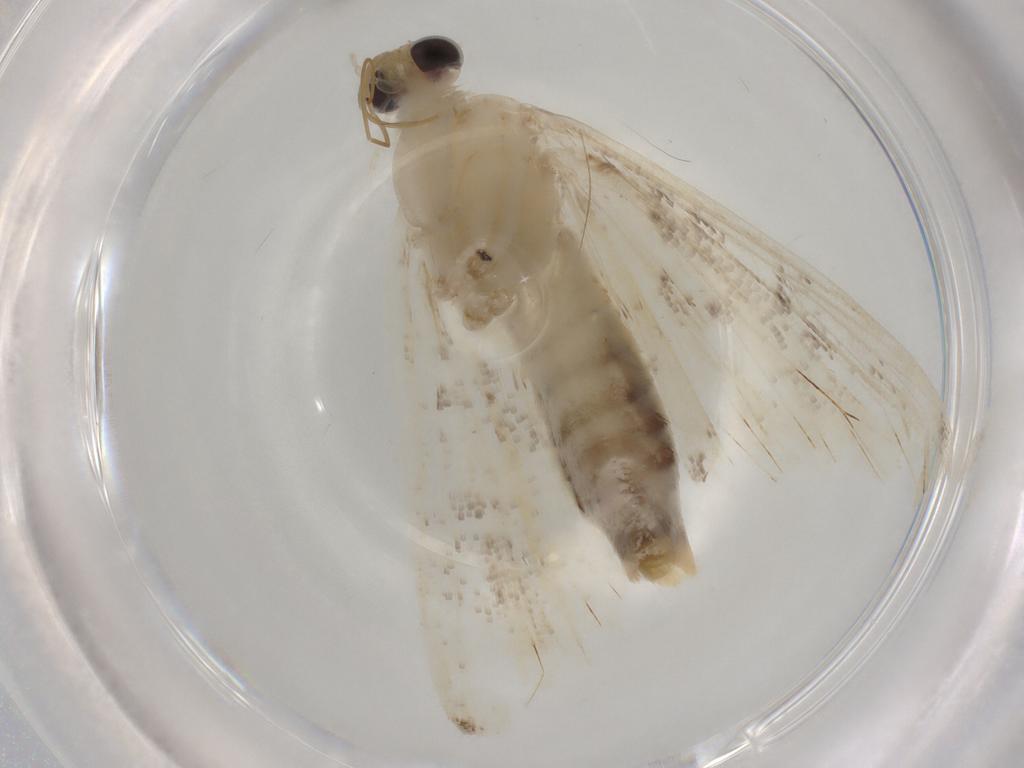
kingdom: Animalia
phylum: Arthropoda
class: Insecta
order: Lepidoptera
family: Crambidae
